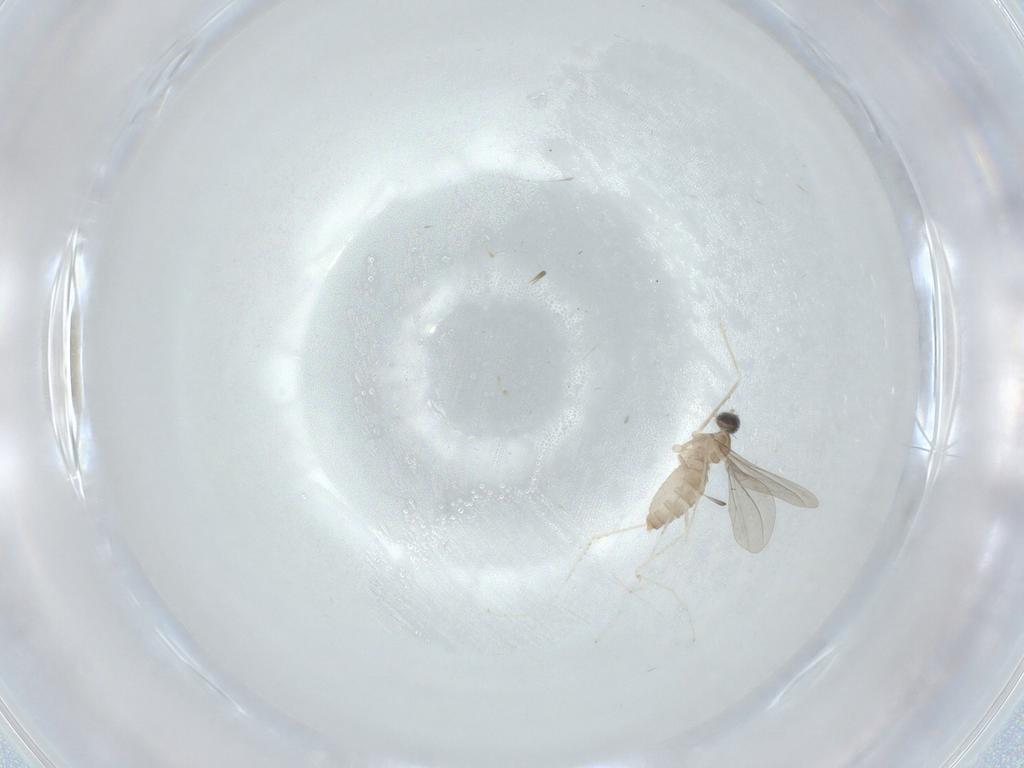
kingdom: Animalia
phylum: Arthropoda
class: Insecta
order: Diptera
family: Cecidomyiidae
